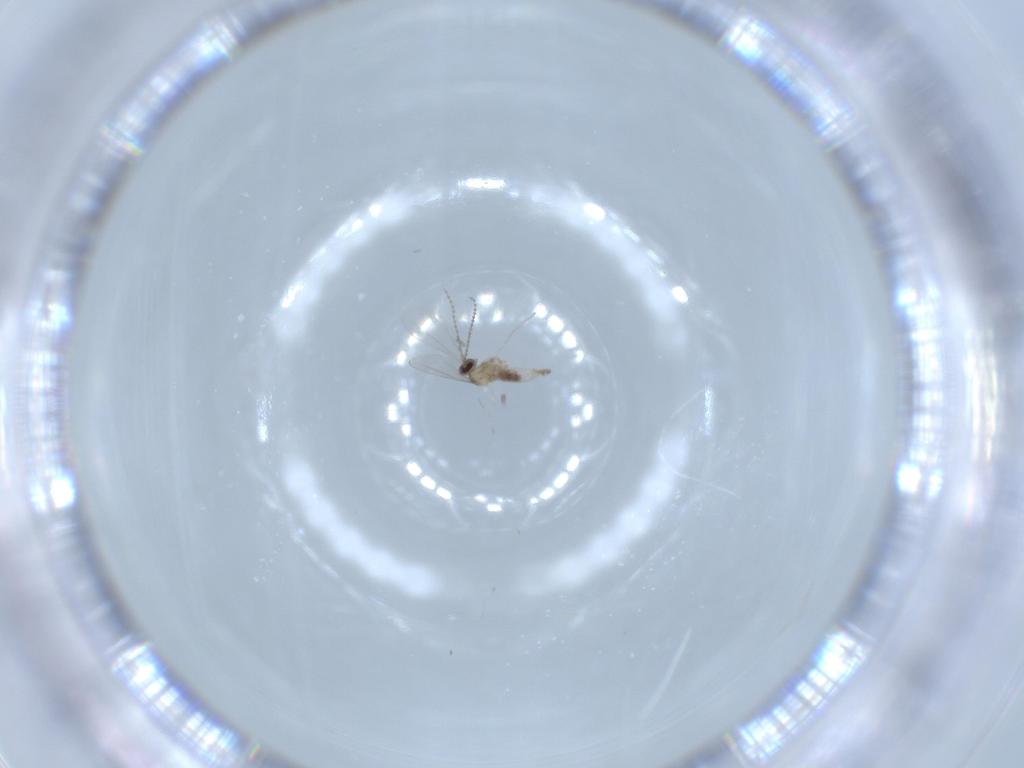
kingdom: Animalia
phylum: Arthropoda
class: Insecta
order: Diptera
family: Cecidomyiidae
